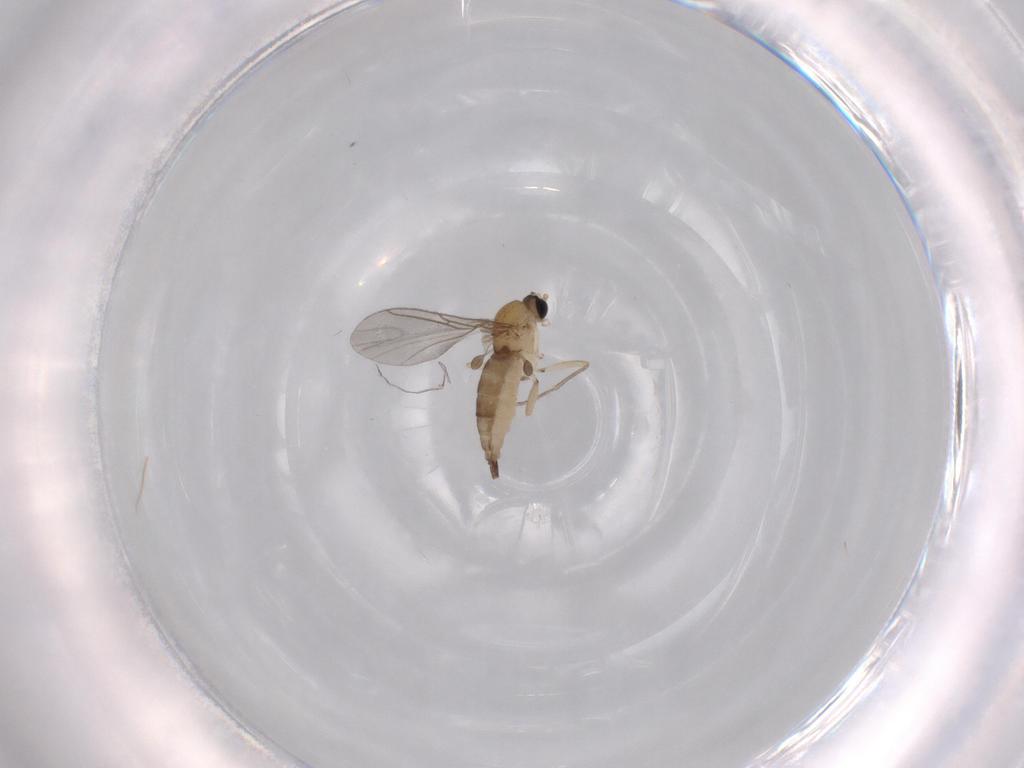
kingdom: Animalia
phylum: Arthropoda
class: Insecta
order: Diptera
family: Sciaridae
